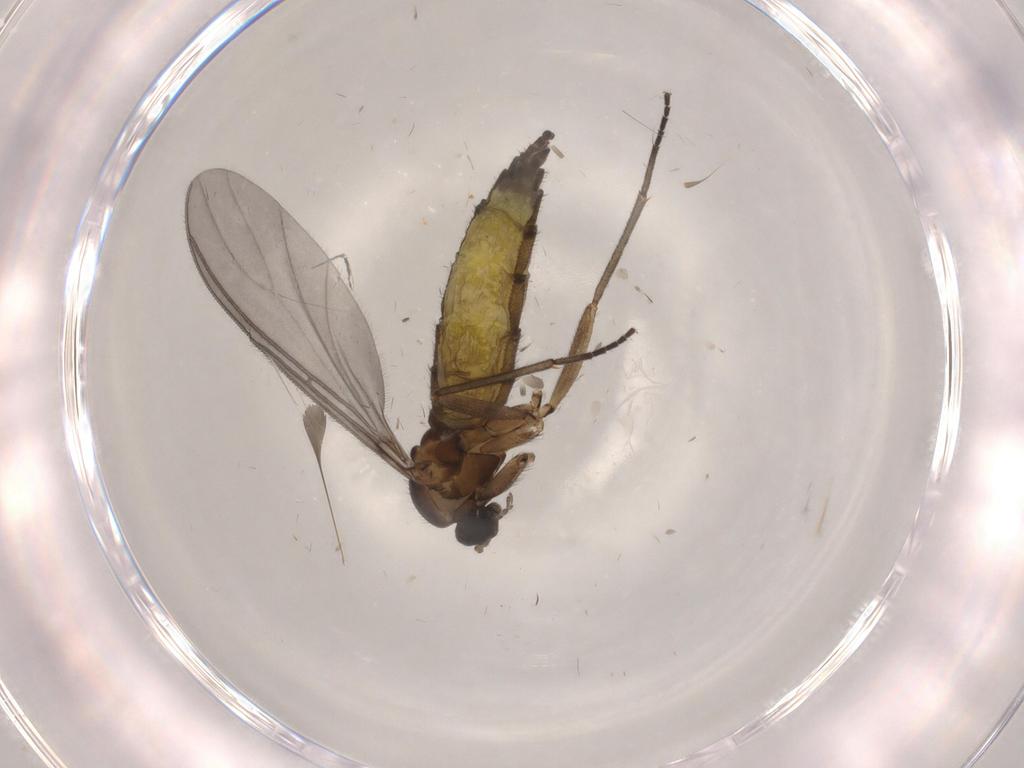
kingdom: Animalia
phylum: Arthropoda
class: Insecta
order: Diptera
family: Sciaridae
